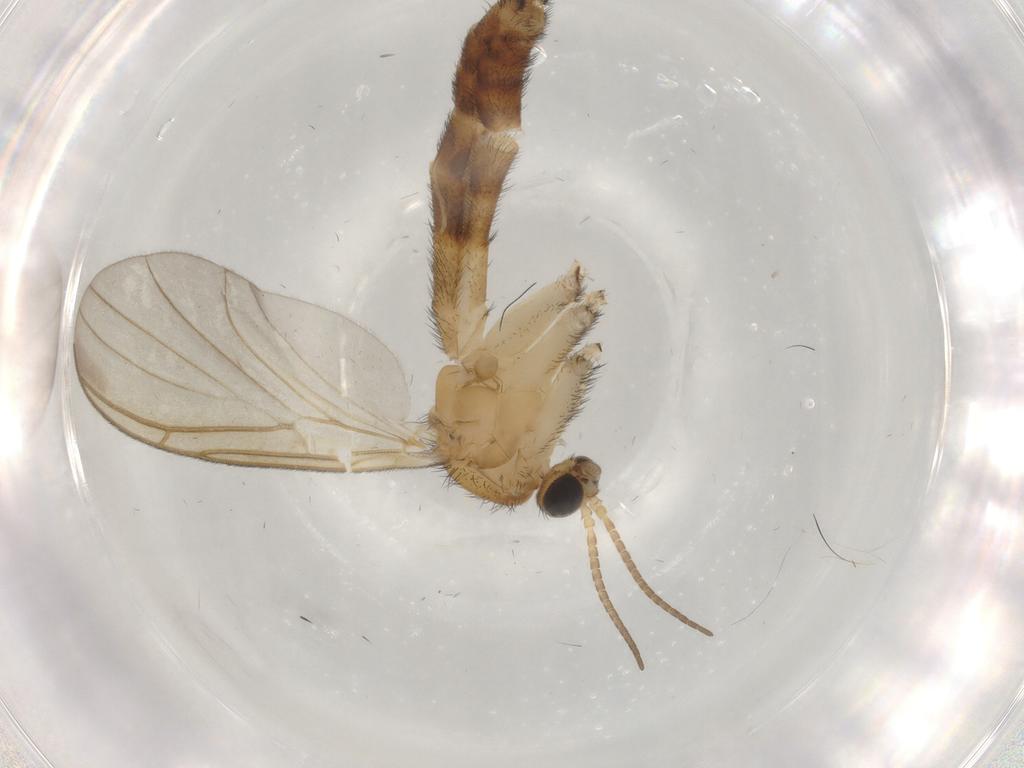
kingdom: Animalia
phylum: Arthropoda
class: Insecta
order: Diptera
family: Keroplatidae
